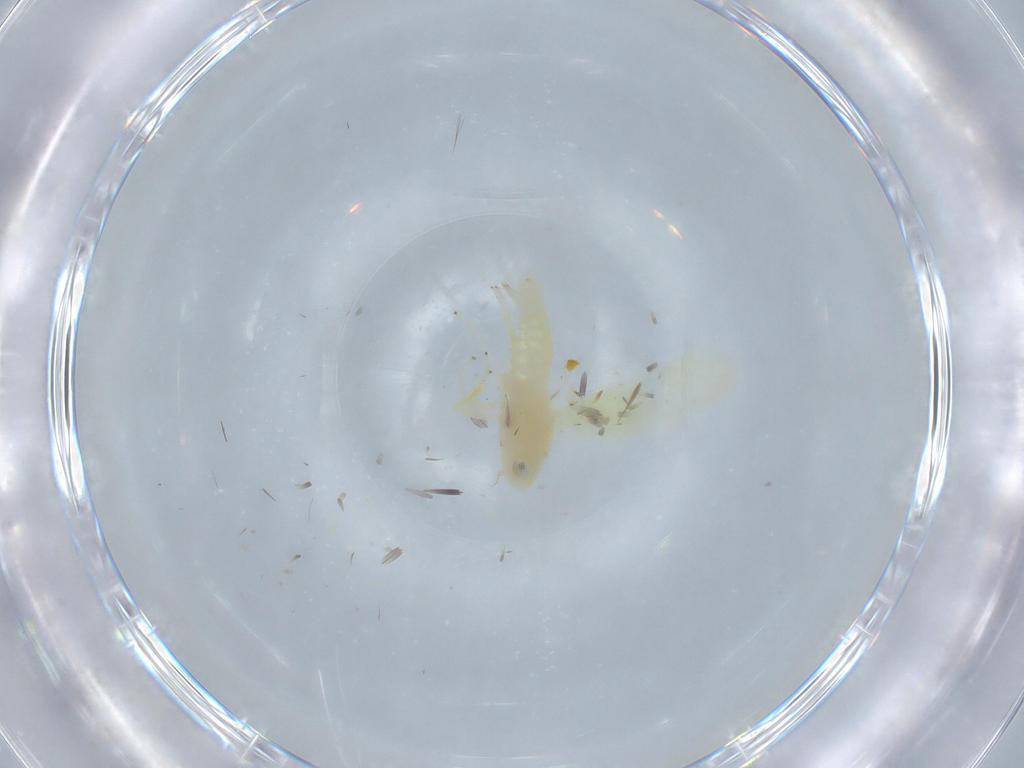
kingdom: Animalia
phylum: Arthropoda
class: Insecta
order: Hemiptera
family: Cicadellidae
